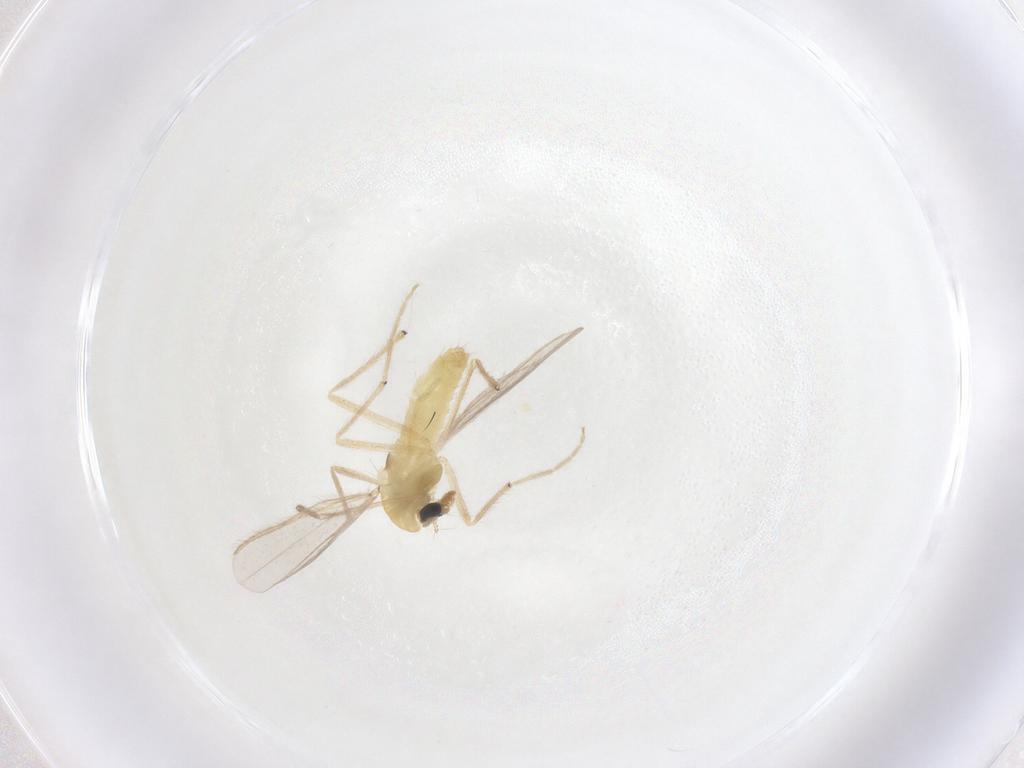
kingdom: Animalia
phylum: Arthropoda
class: Insecta
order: Diptera
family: Chironomidae
